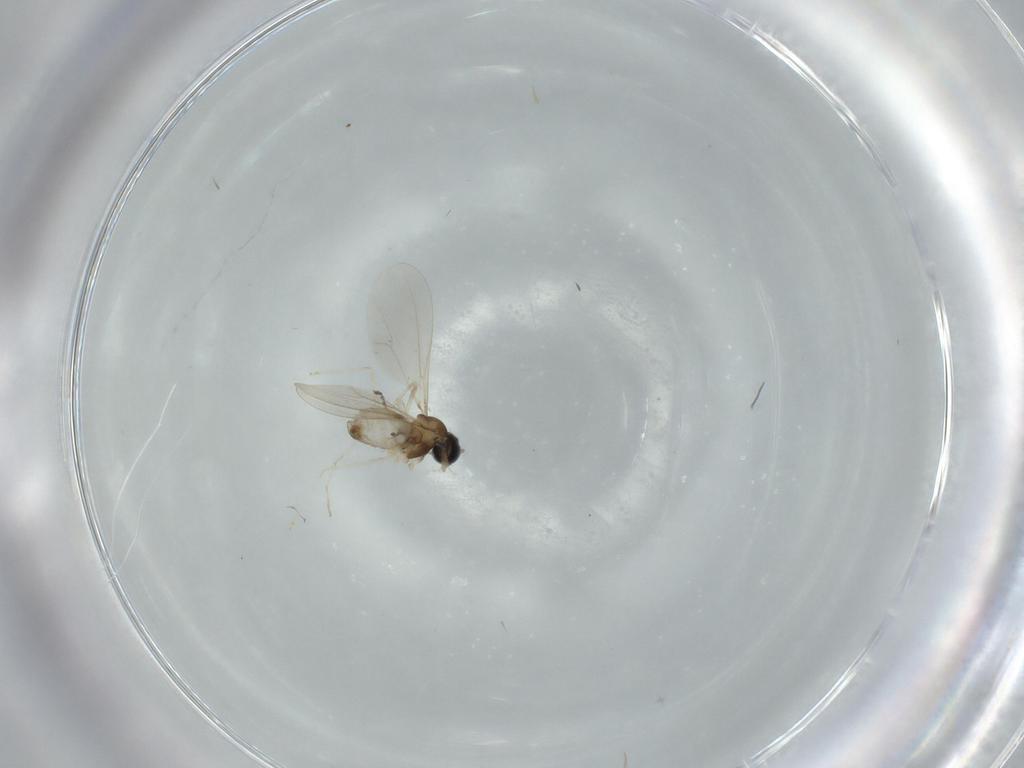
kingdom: Animalia
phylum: Arthropoda
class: Insecta
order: Diptera
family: Cecidomyiidae
